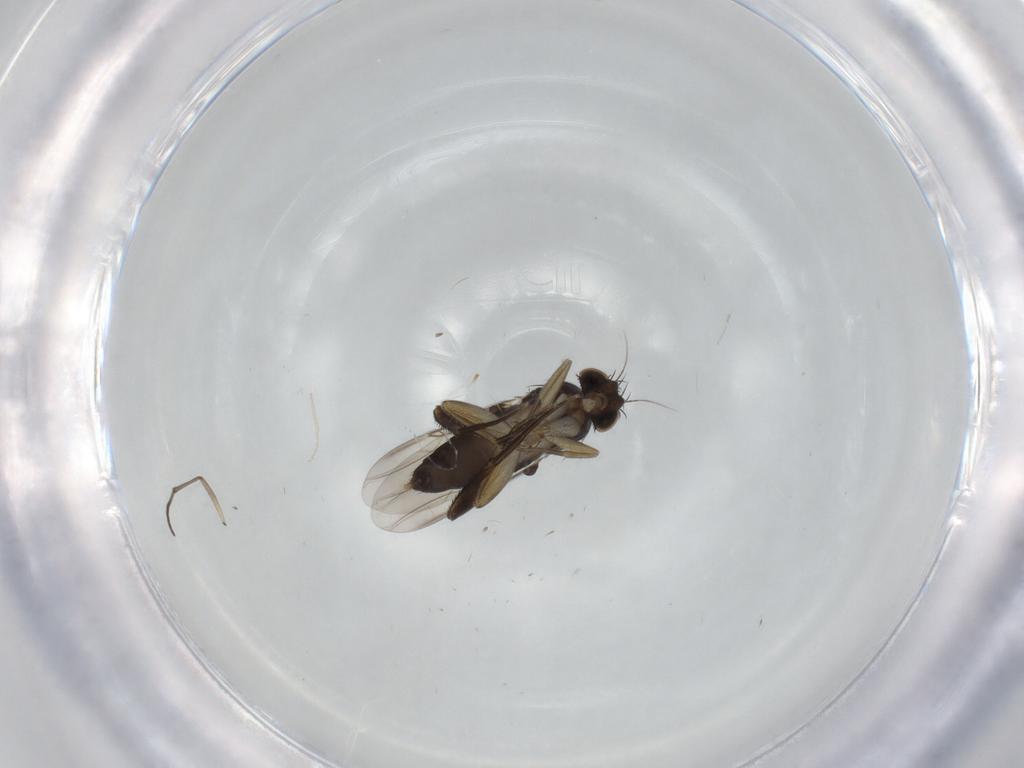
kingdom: Animalia
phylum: Arthropoda
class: Insecta
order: Diptera
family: Phoridae
